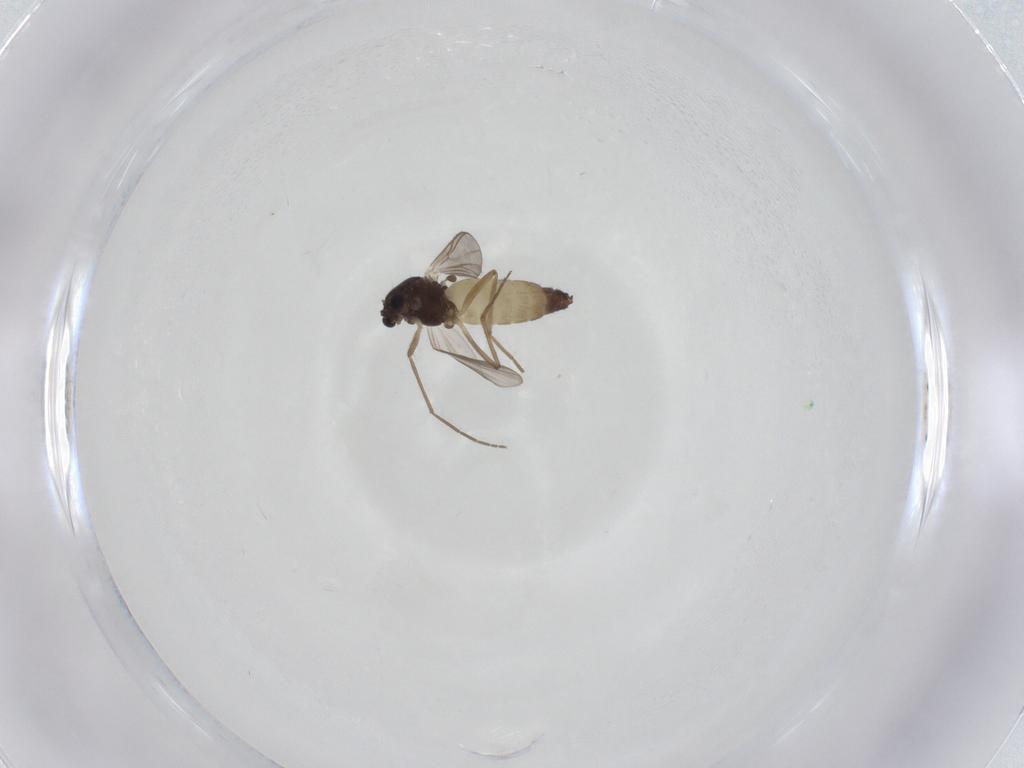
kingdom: Animalia
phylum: Arthropoda
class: Insecta
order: Diptera
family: Chironomidae
